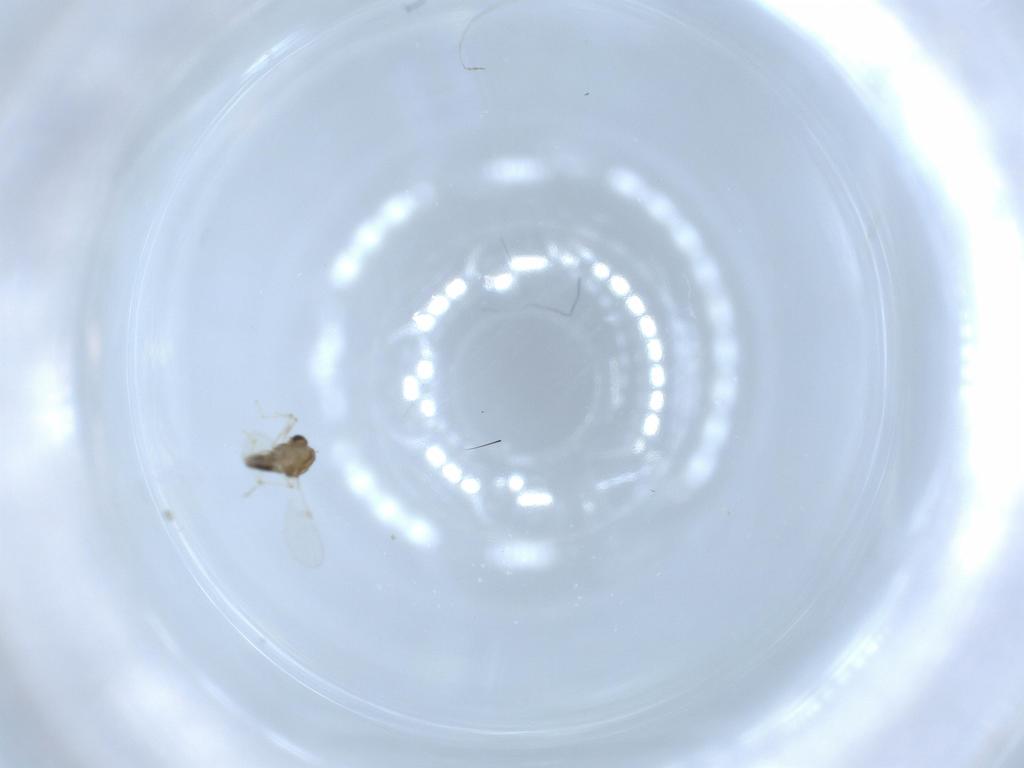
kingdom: Animalia
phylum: Arthropoda
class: Insecta
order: Diptera
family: Chironomidae
